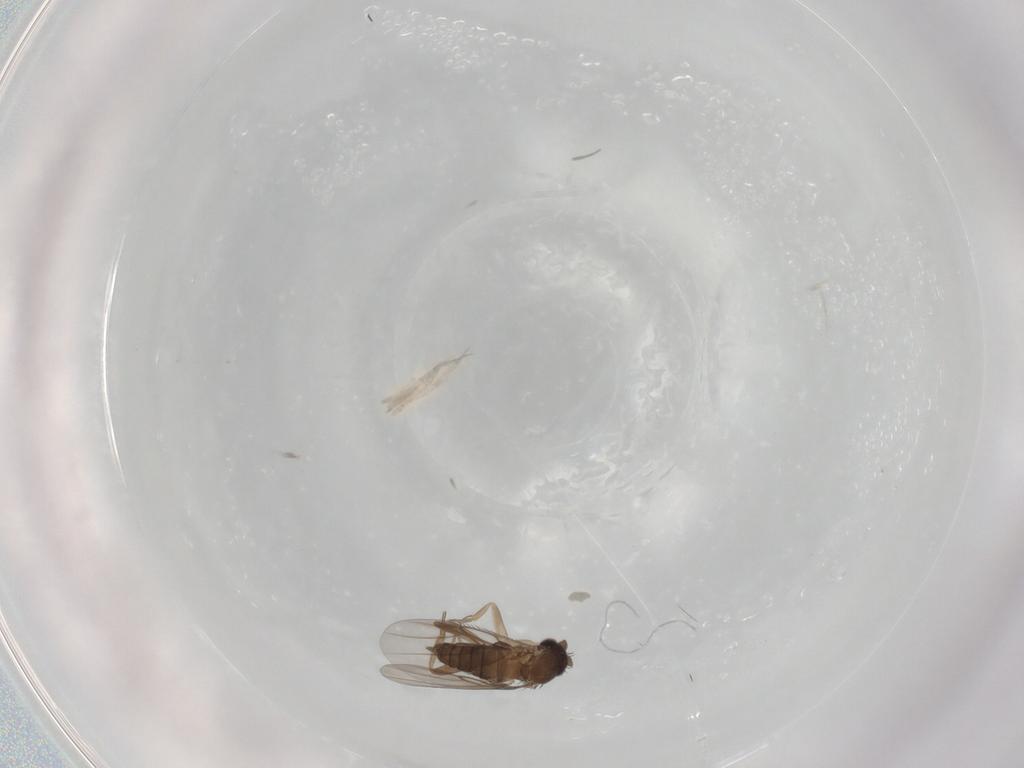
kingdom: Animalia
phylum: Arthropoda
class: Insecta
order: Diptera
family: Phoridae
